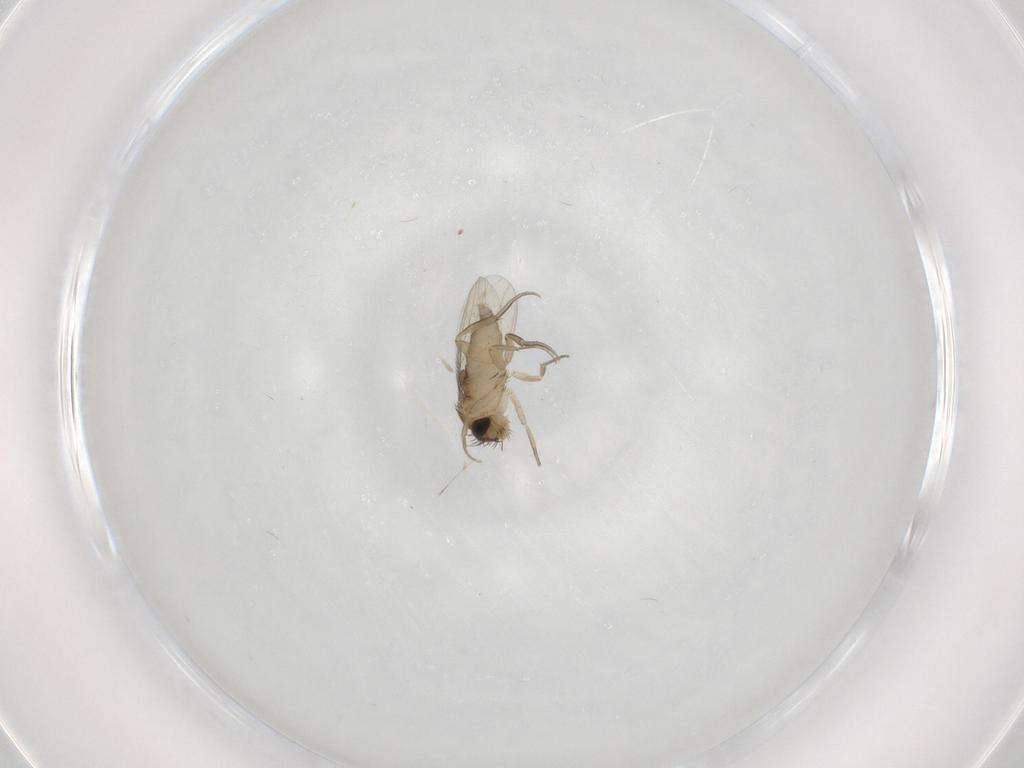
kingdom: Animalia
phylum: Arthropoda
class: Insecta
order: Diptera
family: Phoridae
